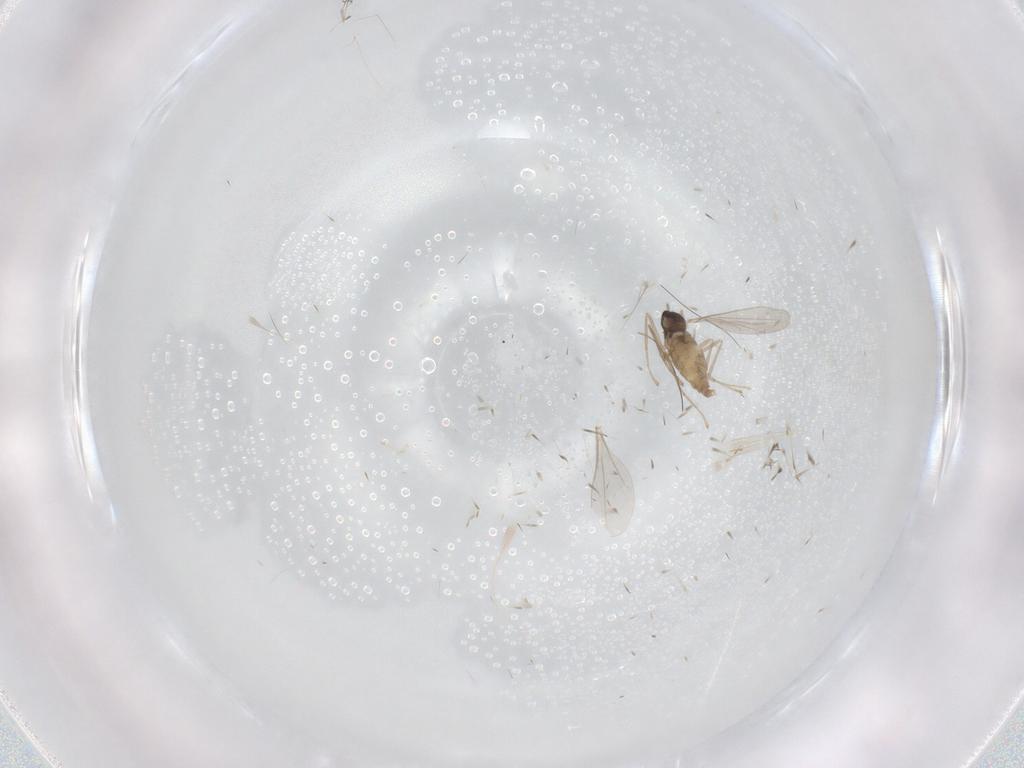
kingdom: Animalia
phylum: Arthropoda
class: Insecta
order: Diptera
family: Cecidomyiidae
